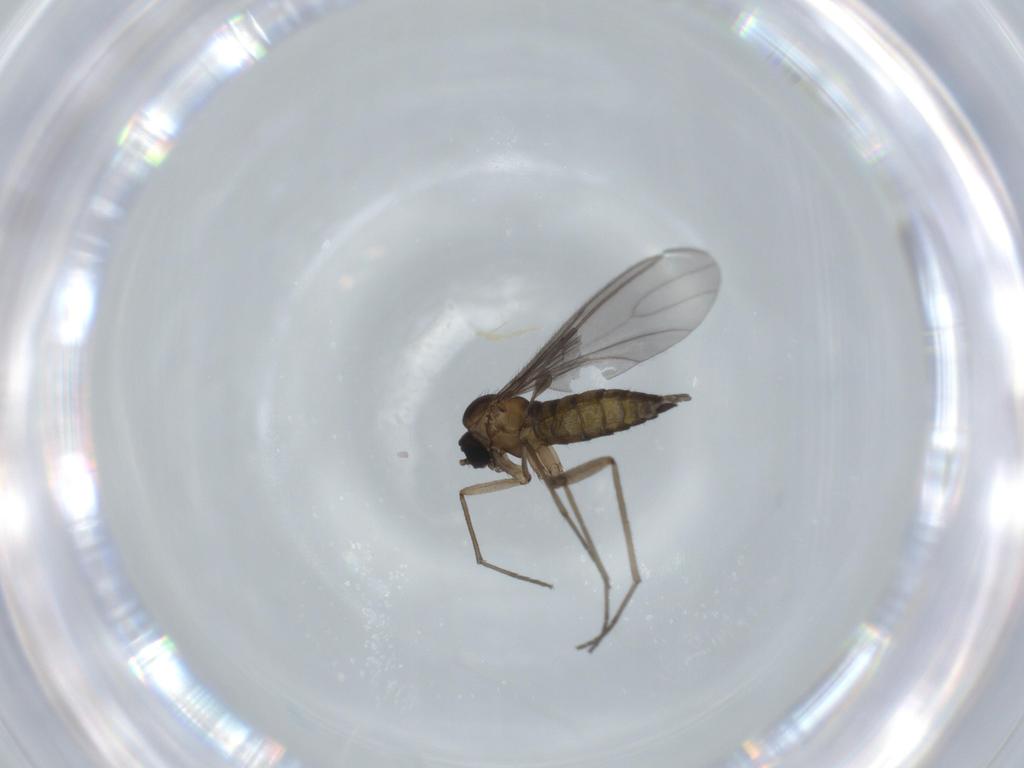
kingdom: Animalia
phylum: Arthropoda
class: Insecta
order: Diptera
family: Sciaridae
